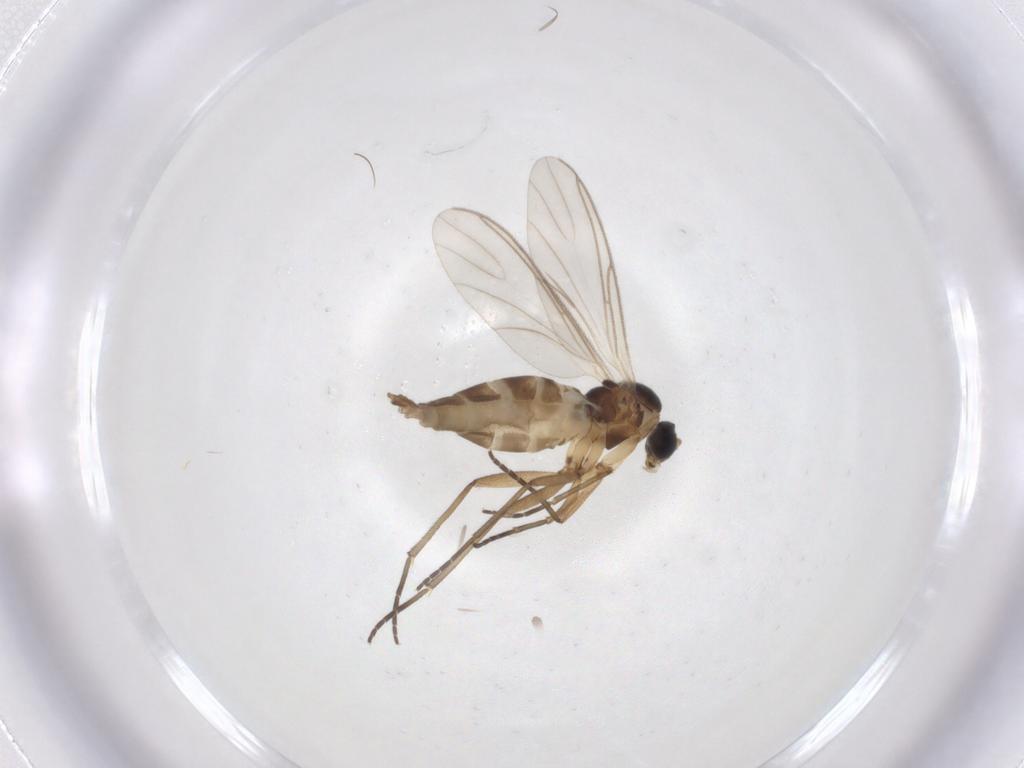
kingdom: Animalia
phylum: Arthropoda
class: Insecta
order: Diptera
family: Cecidomyiidae
